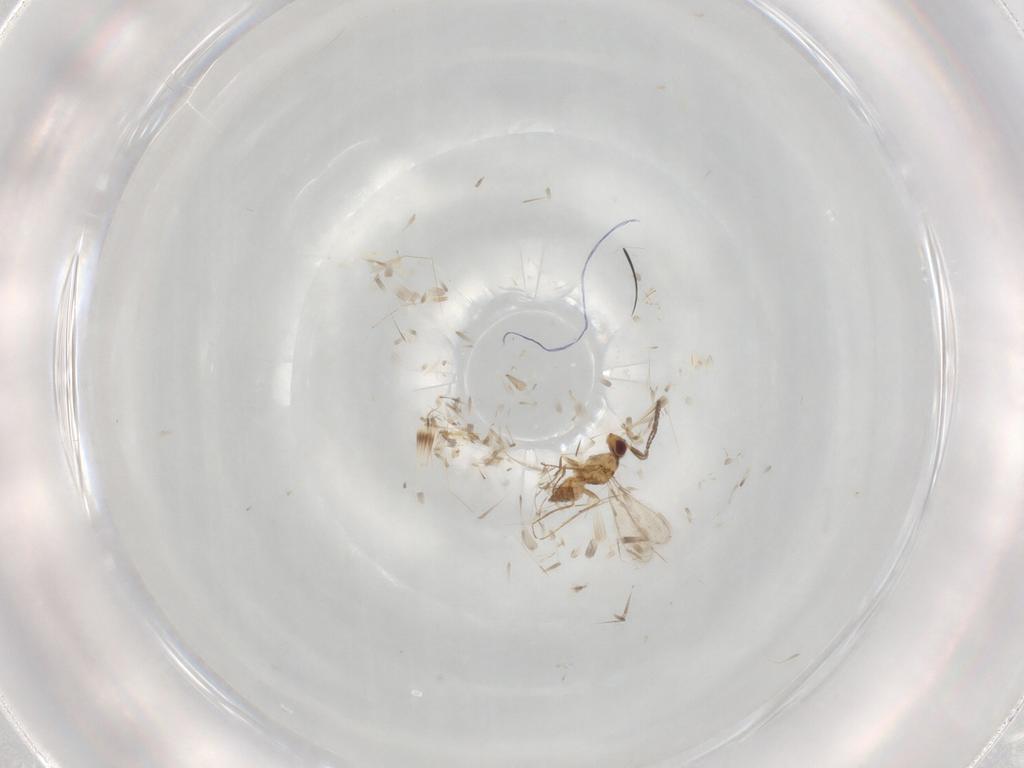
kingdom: Animalia
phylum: Arthropoda
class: Insecta
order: Hymenoptera
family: Mymaridae
